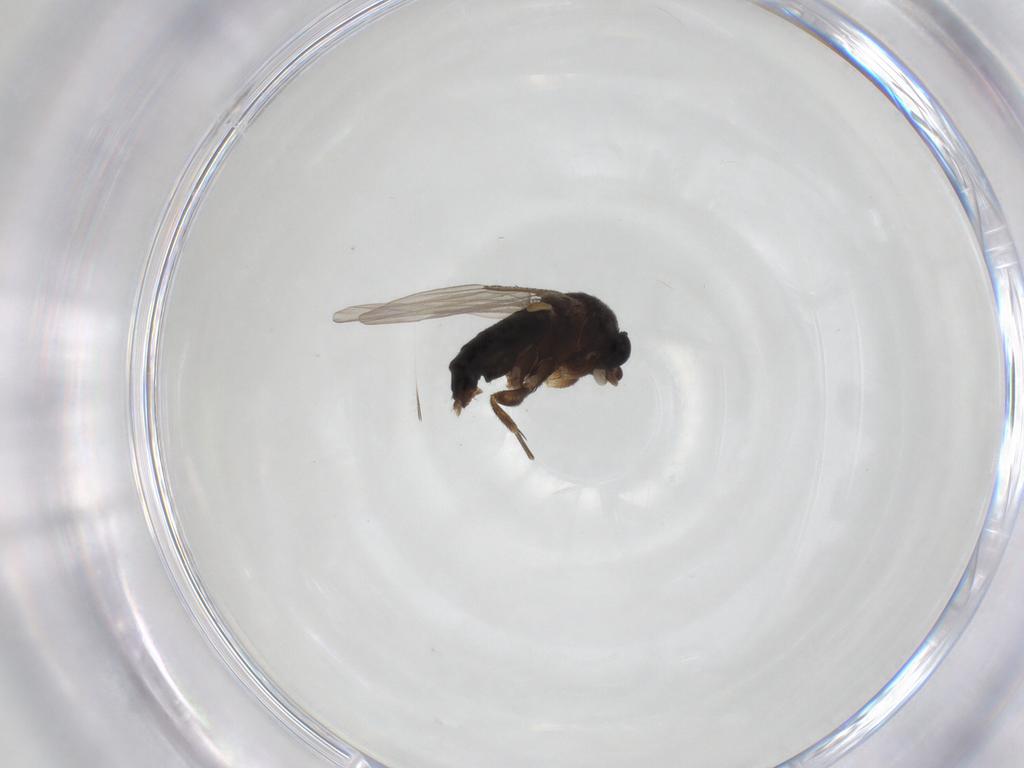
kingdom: Animalia
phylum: Arthropoda
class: Insecta
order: Diptera
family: Phoridae
